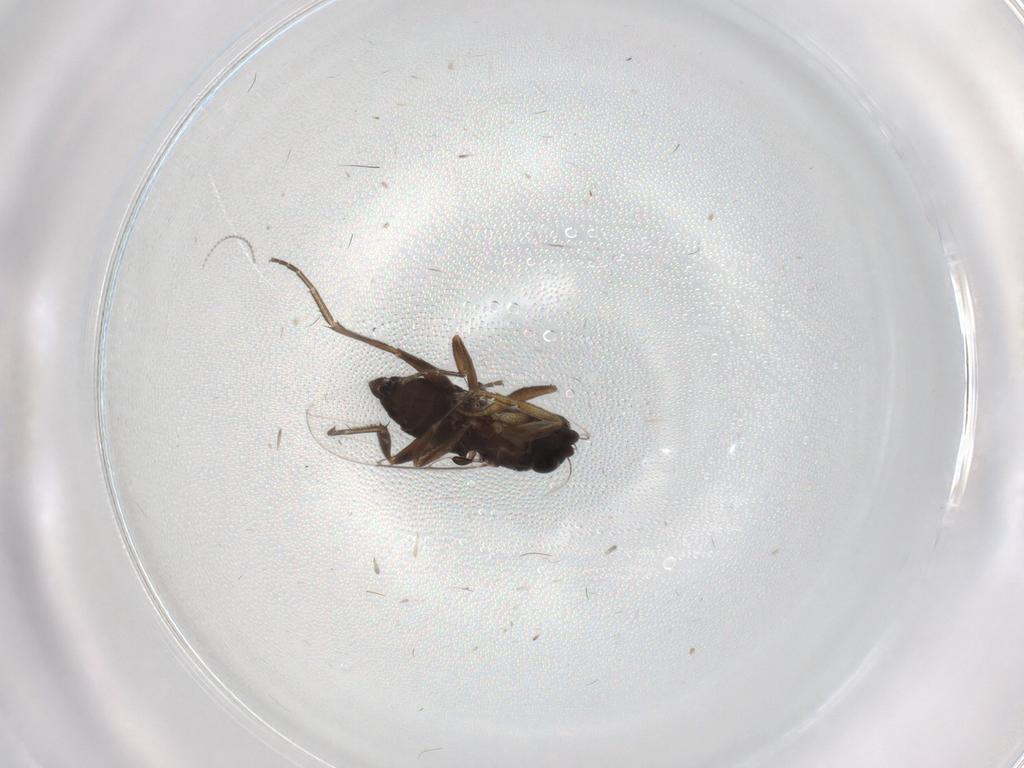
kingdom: Animalia
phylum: Arthropoda
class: Insecta
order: Diptera
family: Phoridae
